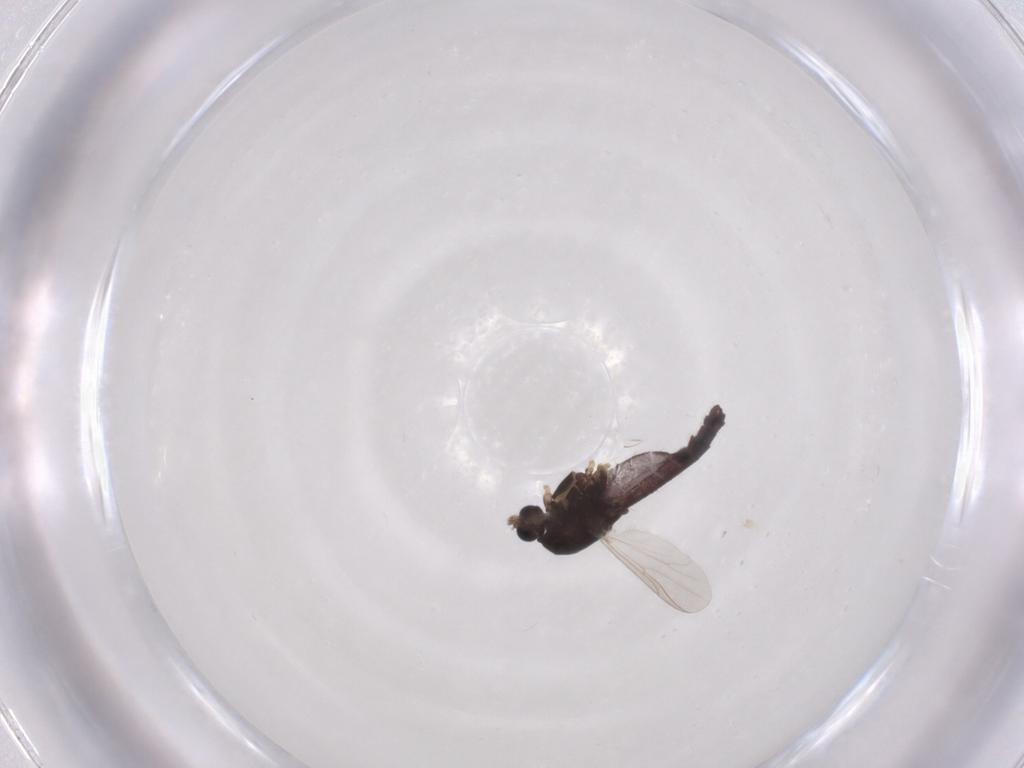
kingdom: Animalia
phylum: Arthropoda
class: Insecta
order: Diptera
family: Chironomidae
